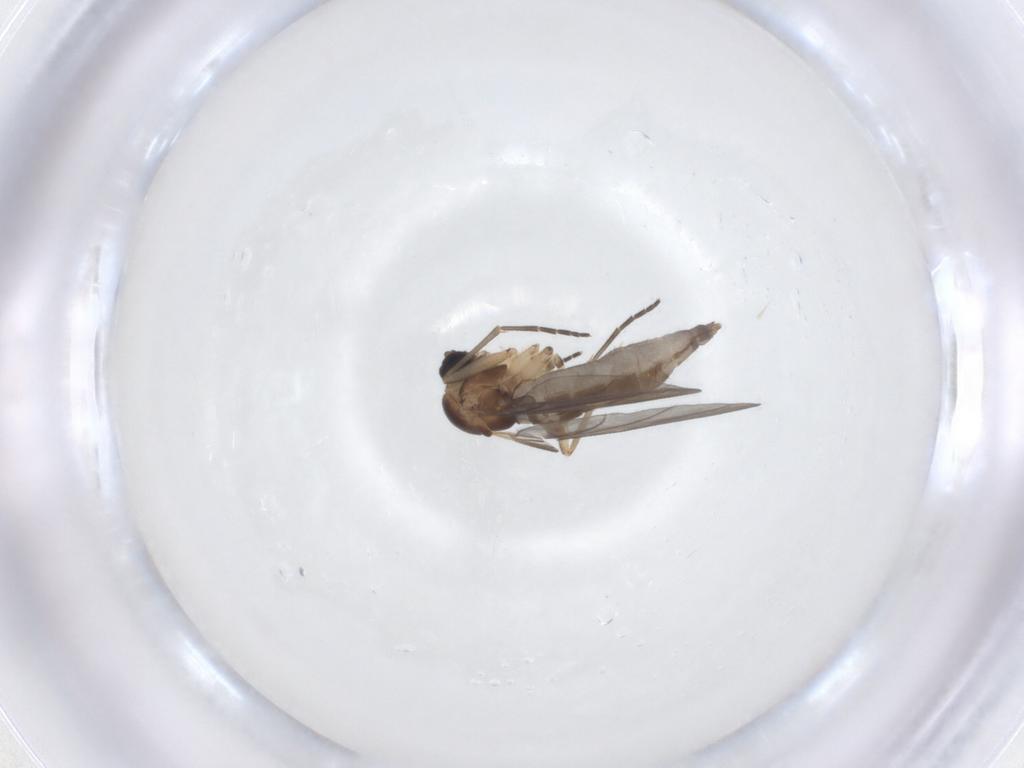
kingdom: Animalia
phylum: Arthropoda
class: Insecta
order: Diptera
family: Sciaridae
